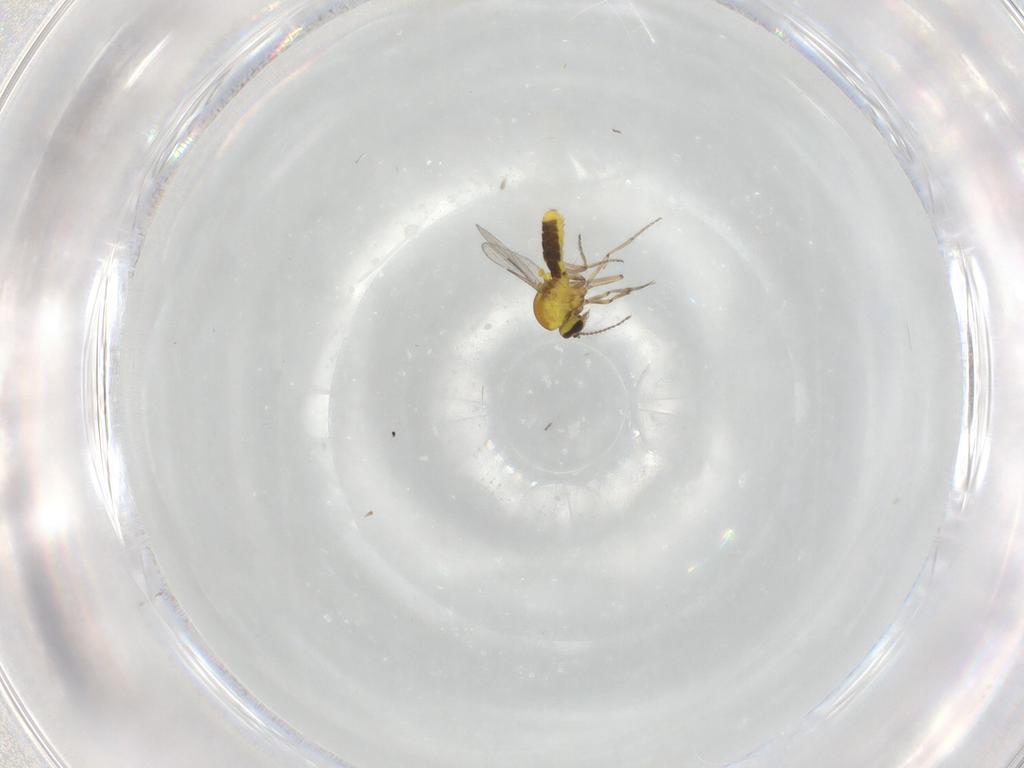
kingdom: Animalia
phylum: Arthropoda
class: Insecta
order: Diptera
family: Ceratopogonidae
